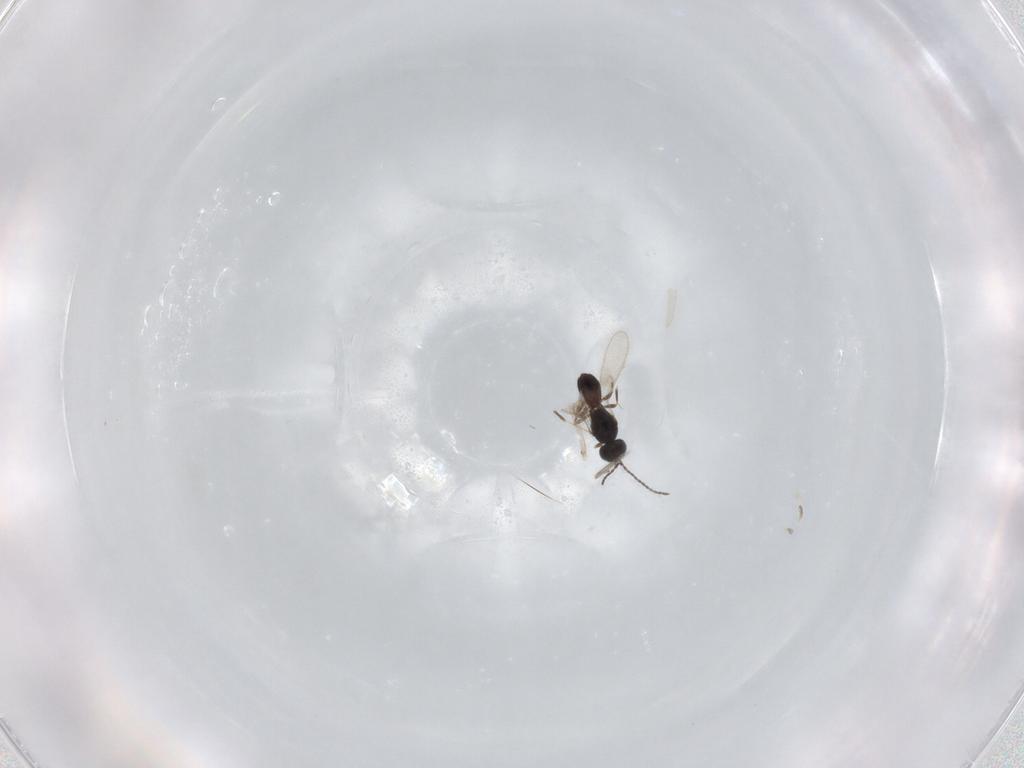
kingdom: Animalia
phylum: Arthropoda
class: Insecta
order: Hymenoptera
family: Scelionidae
